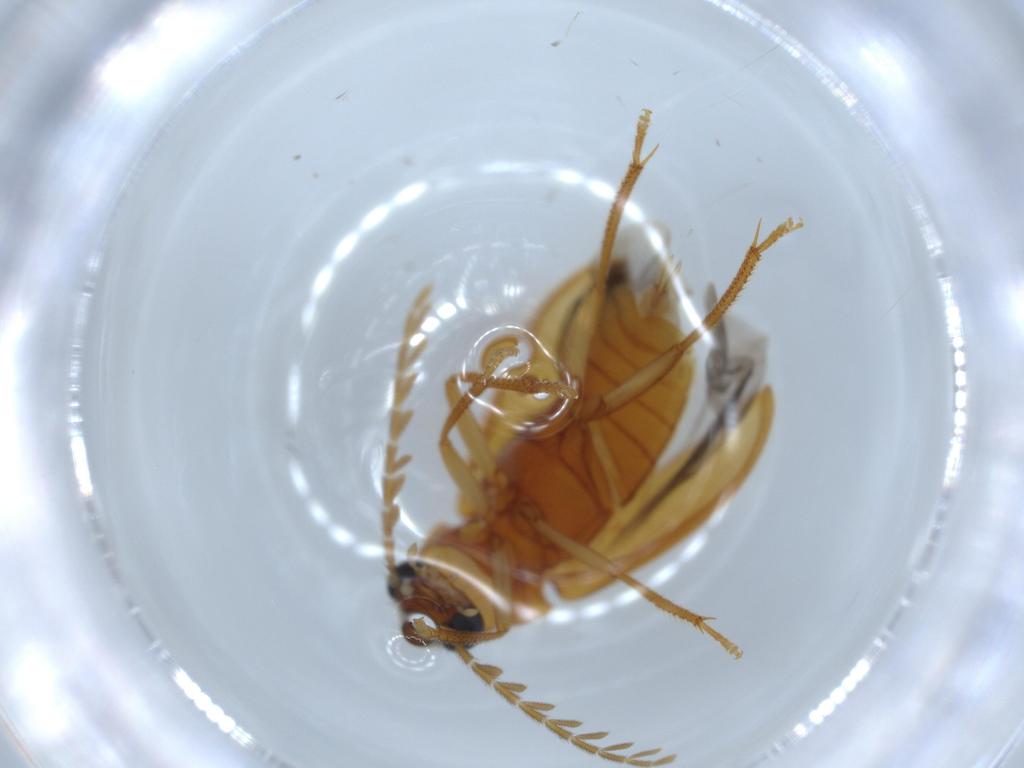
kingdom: Animalia
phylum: Arthropoda
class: Insecta
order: Coleoptera
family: Ptilodactylidae
